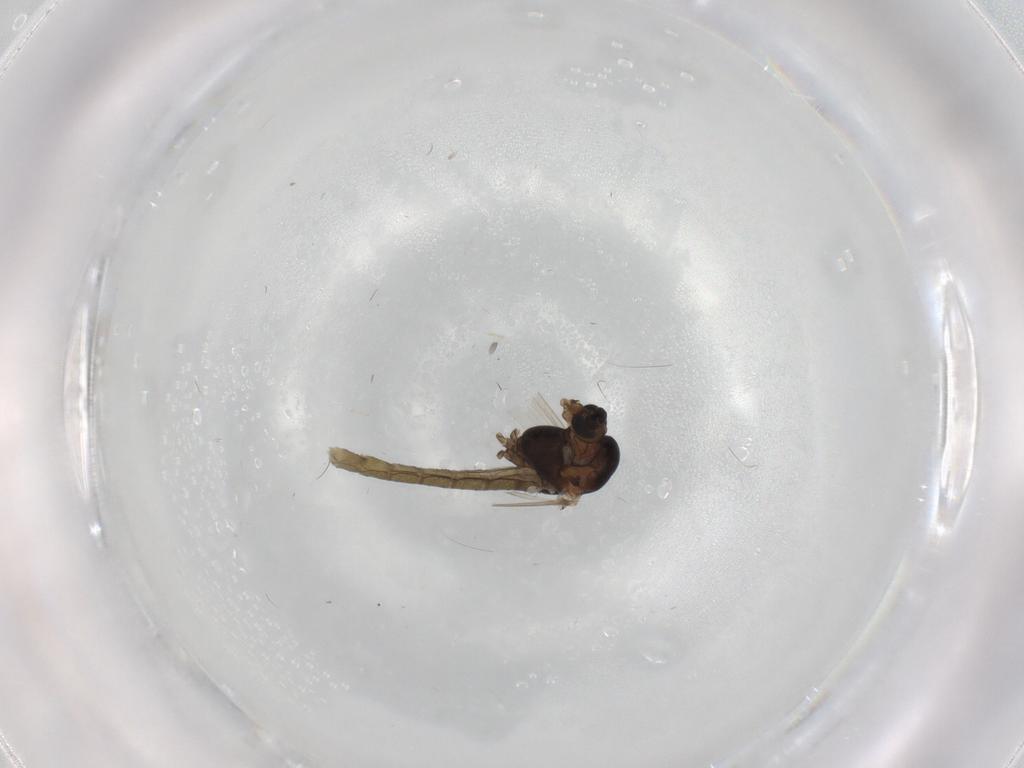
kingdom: Animalia
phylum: Arthropoda
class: Insecta
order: Diptera
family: Chironomidae
